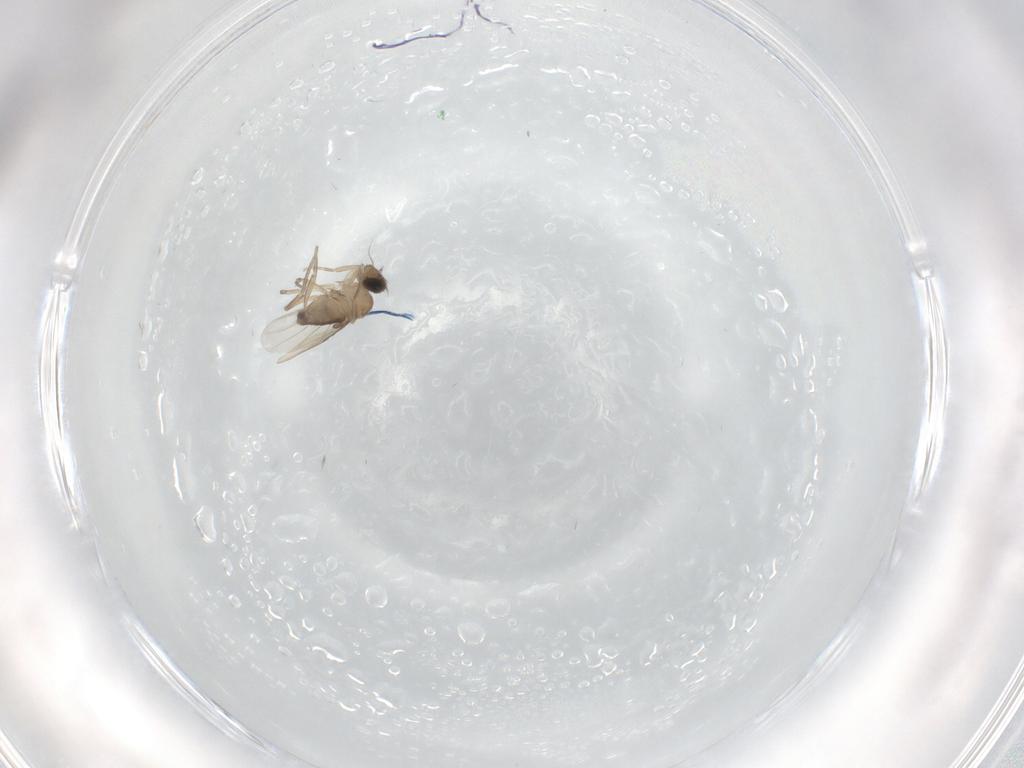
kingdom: Animalia
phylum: Arthropoda
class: Insecta
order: Diptera
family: Phoridae
